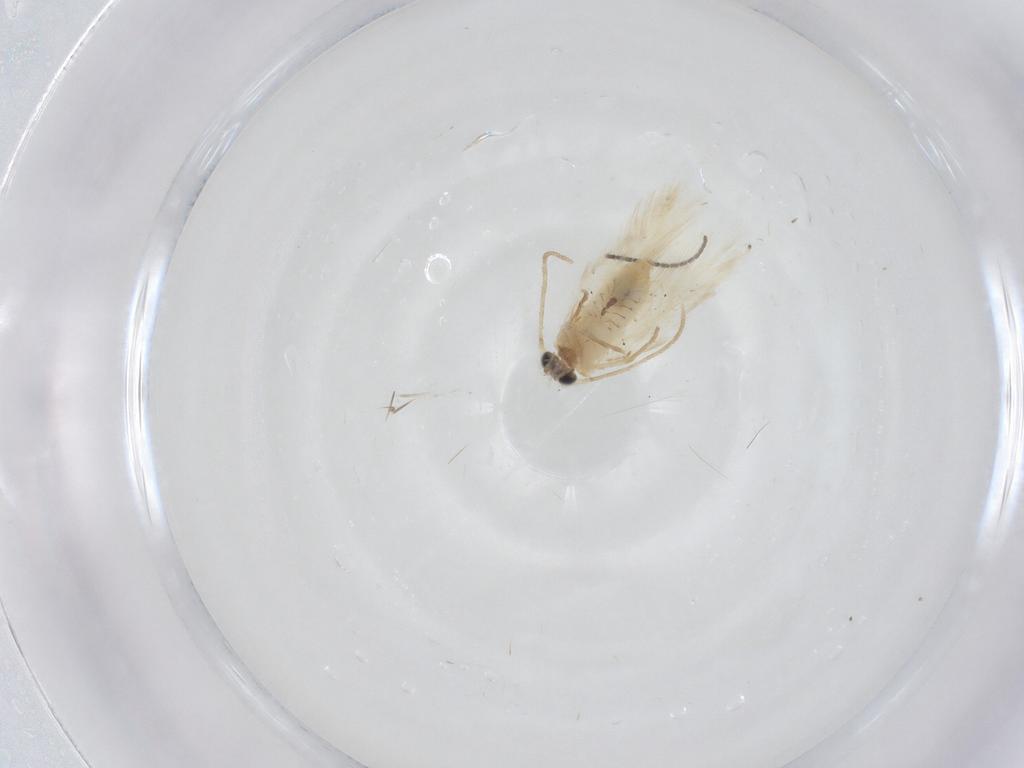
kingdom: Animalia
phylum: Arthropoda
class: Insecta
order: Lepidoptera
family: Nepticulidae
